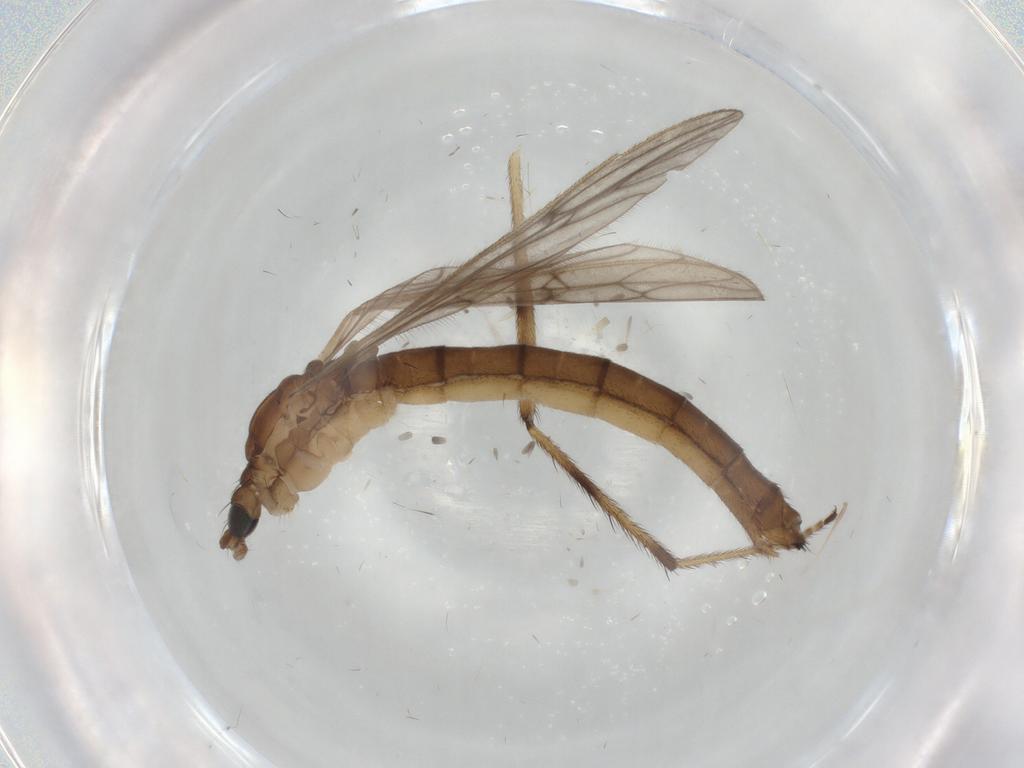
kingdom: Animalia
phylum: Arthropoda
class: Insecta
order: Diptera
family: Limoniidae
